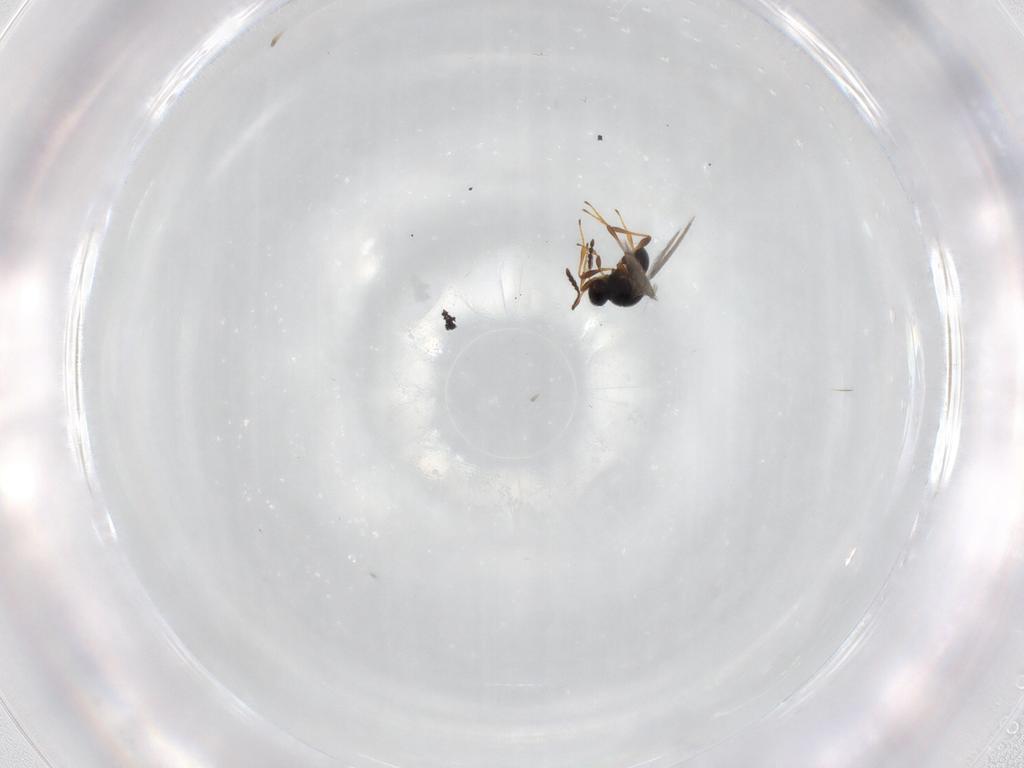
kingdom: Animalia
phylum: Arthropoda
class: Insecta
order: Hymenoptera
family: Platygastridae
